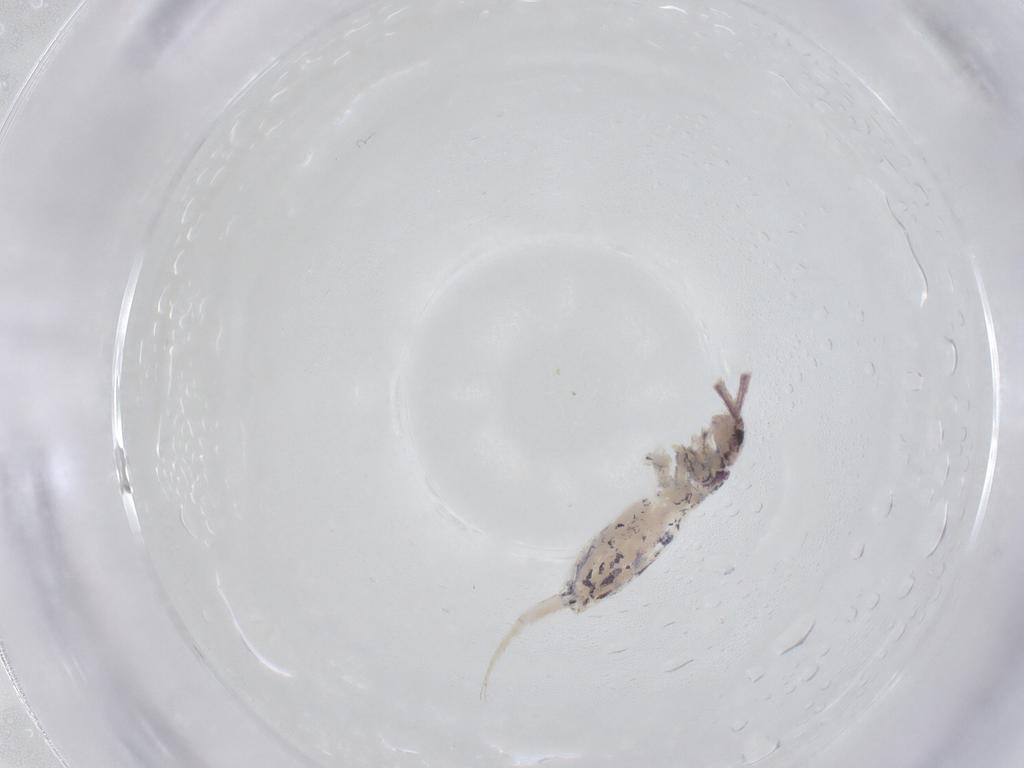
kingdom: Animalia
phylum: Arthropoda
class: Collembola
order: Entomobryomorpha
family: Entomobryidae
